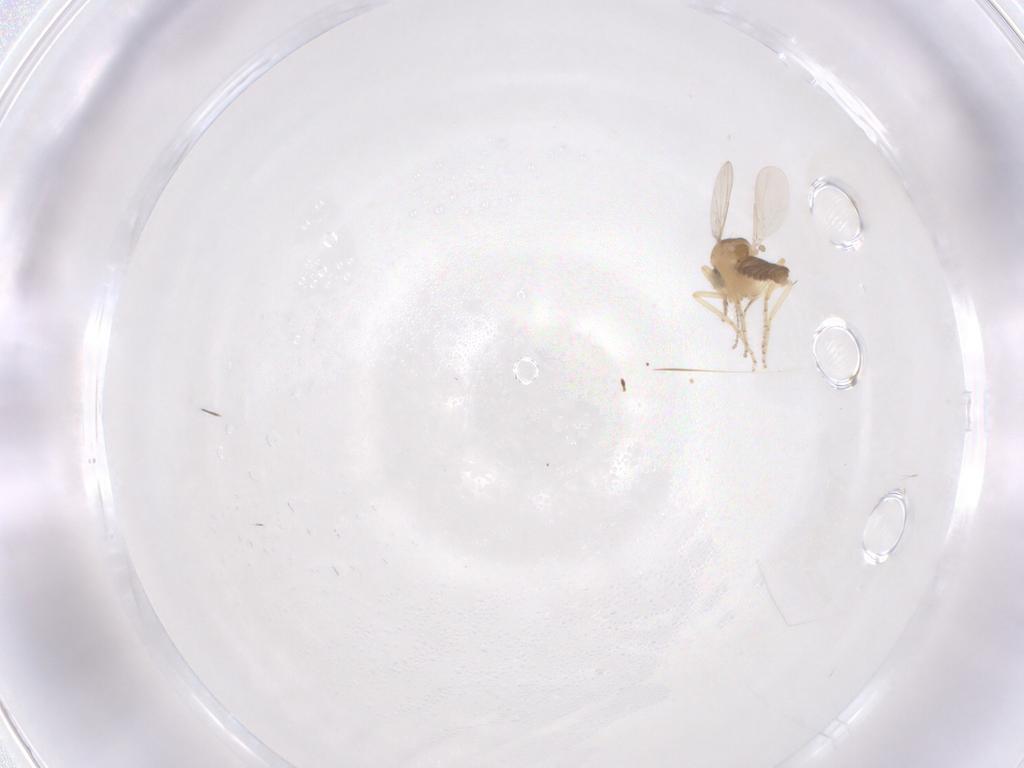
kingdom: Animalia
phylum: Arthropoda
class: Insecta
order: Diptera
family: Ceratopogonidae
